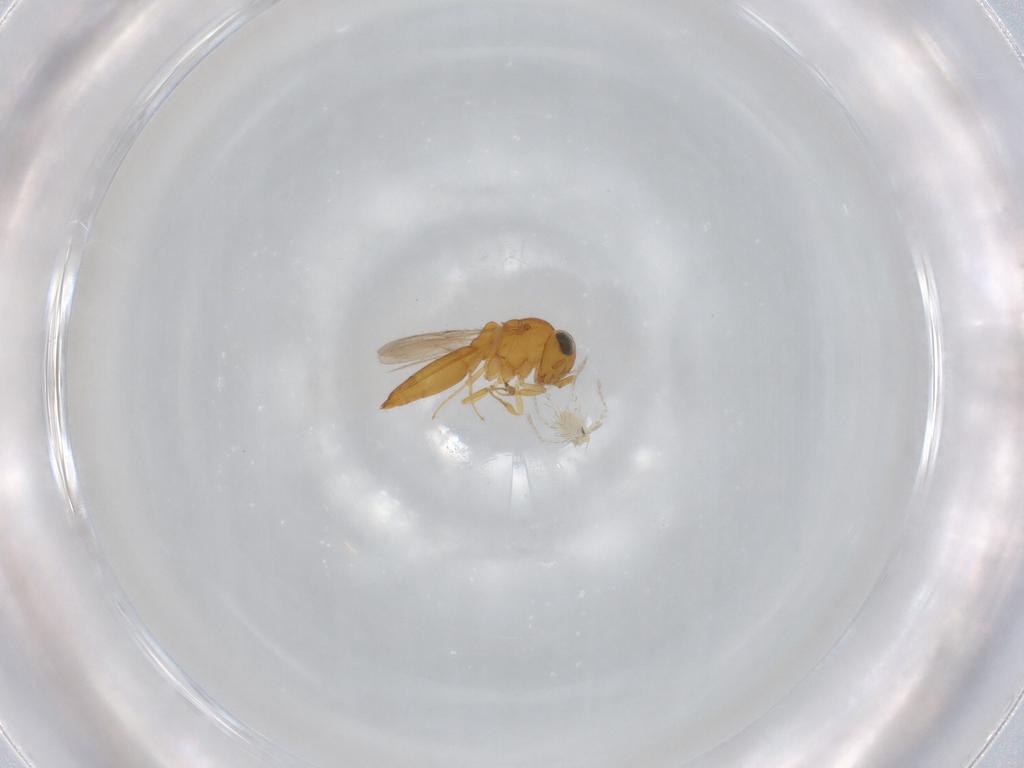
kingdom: Animalia
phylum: Arthropoda
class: Insecta
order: Hymenoptera
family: Scelionidae
